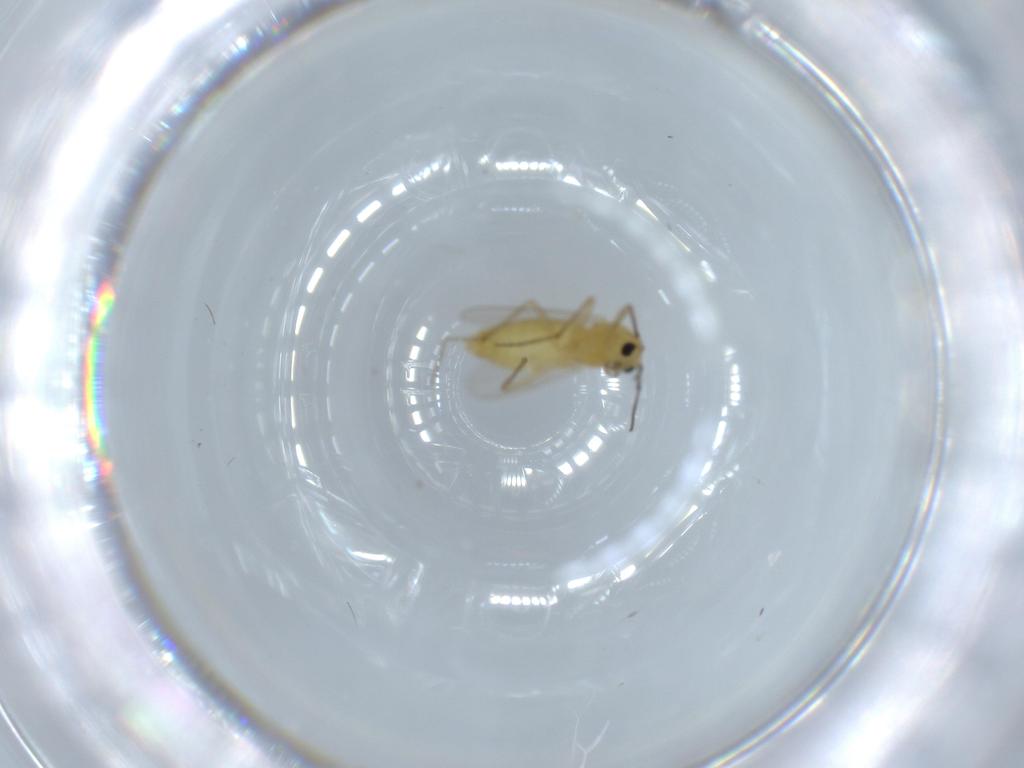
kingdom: Animalia
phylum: Arthropoda
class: Insecta
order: Diptera
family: Chironomidae
